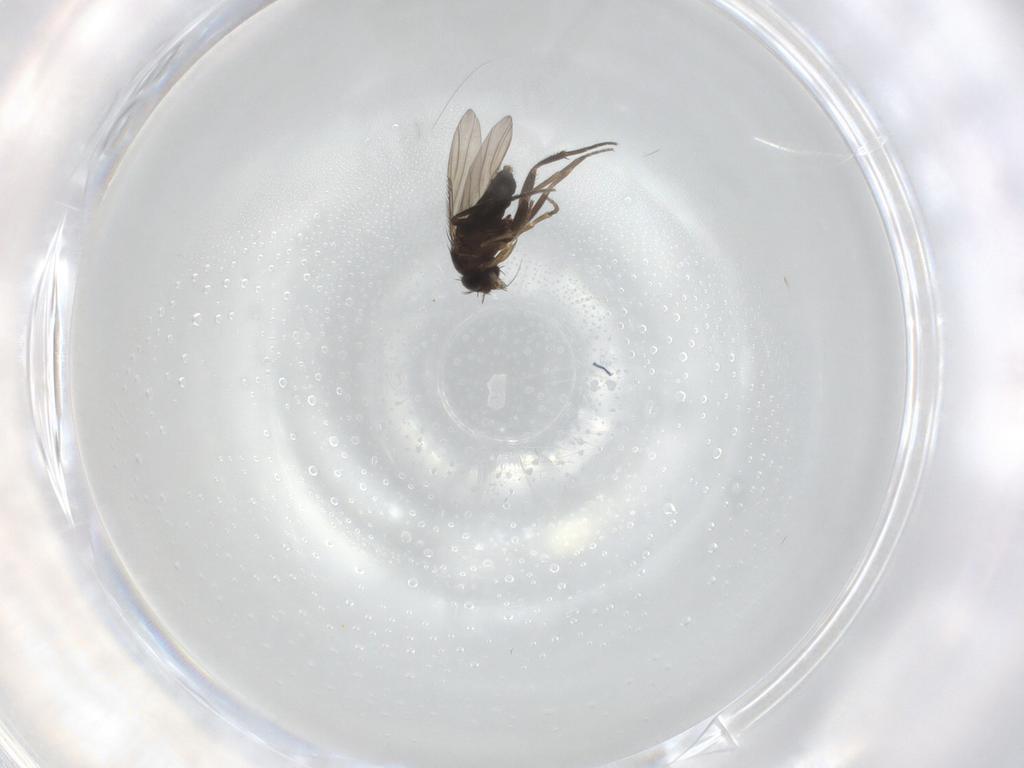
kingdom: Animalia
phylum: Arthropoda
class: Insecta
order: Diptera
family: Phoridae
